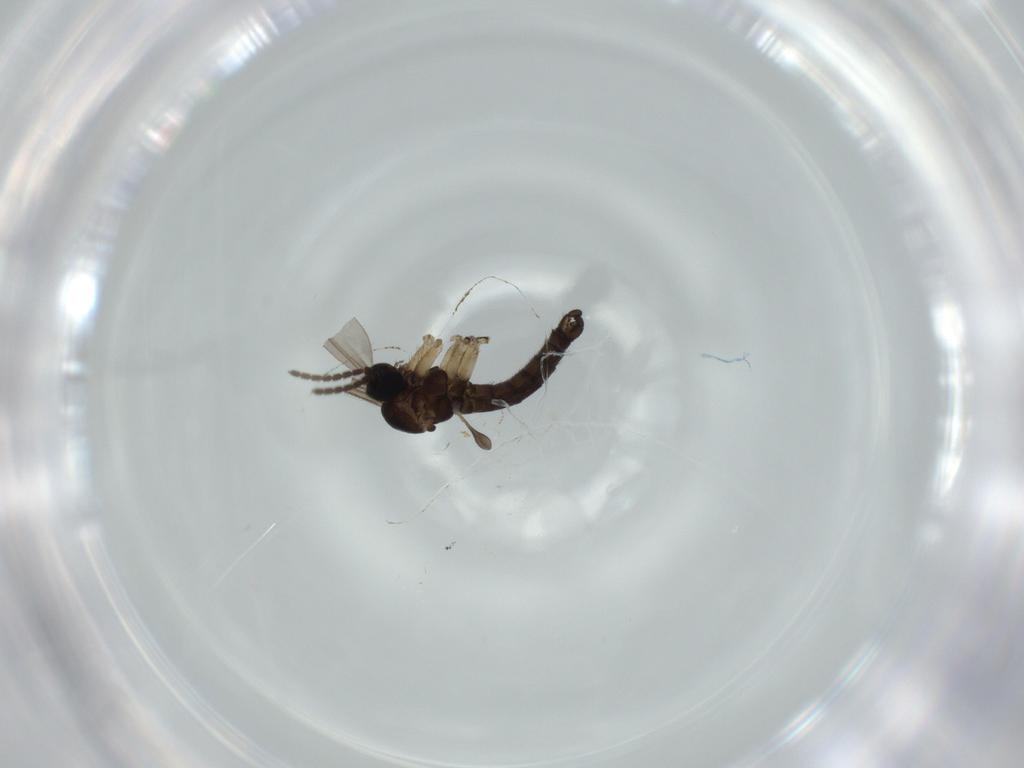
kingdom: Animalia
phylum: Arthropoda
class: Insecta
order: Diptera
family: Sciaridae
